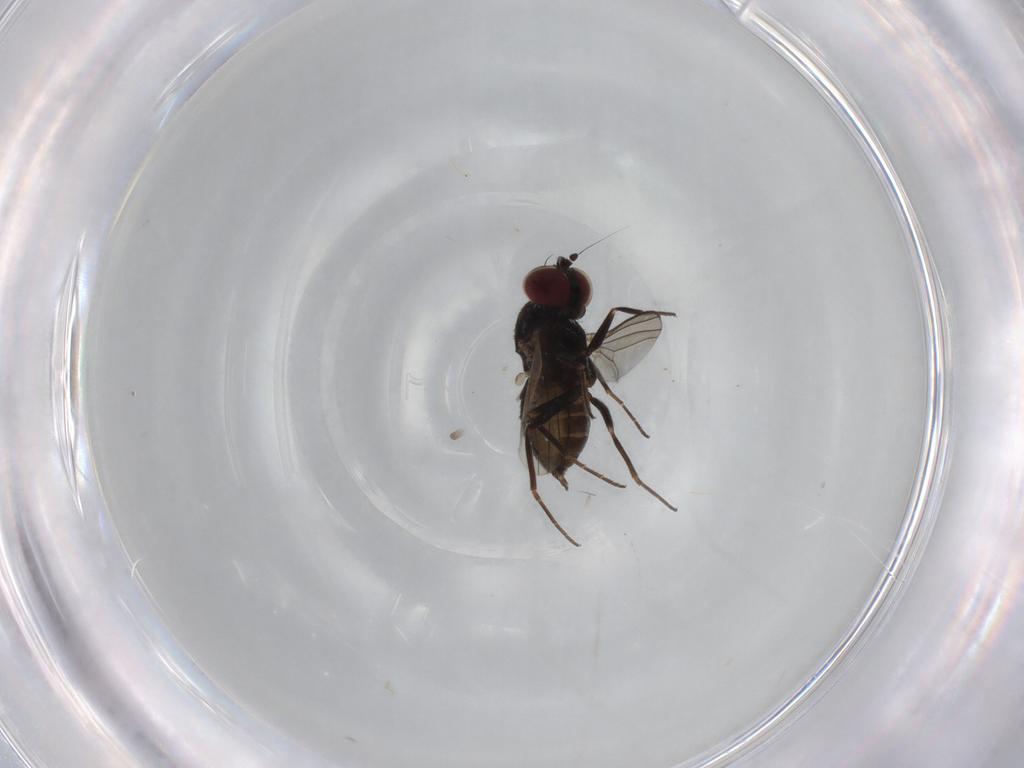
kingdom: Animalia
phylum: Arthropoda
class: Insecta
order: Diptera
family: Dolichopodidae
